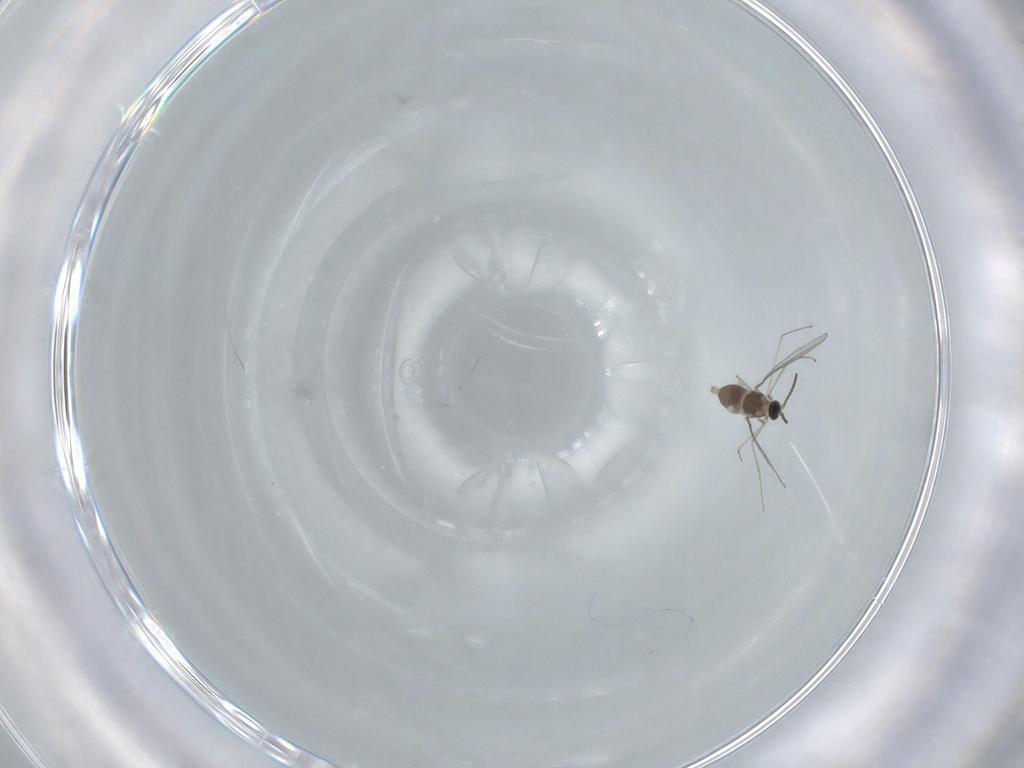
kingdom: Animalia
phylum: Arthropoda
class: Insecta
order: Diptera
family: Cecidomyiidae
